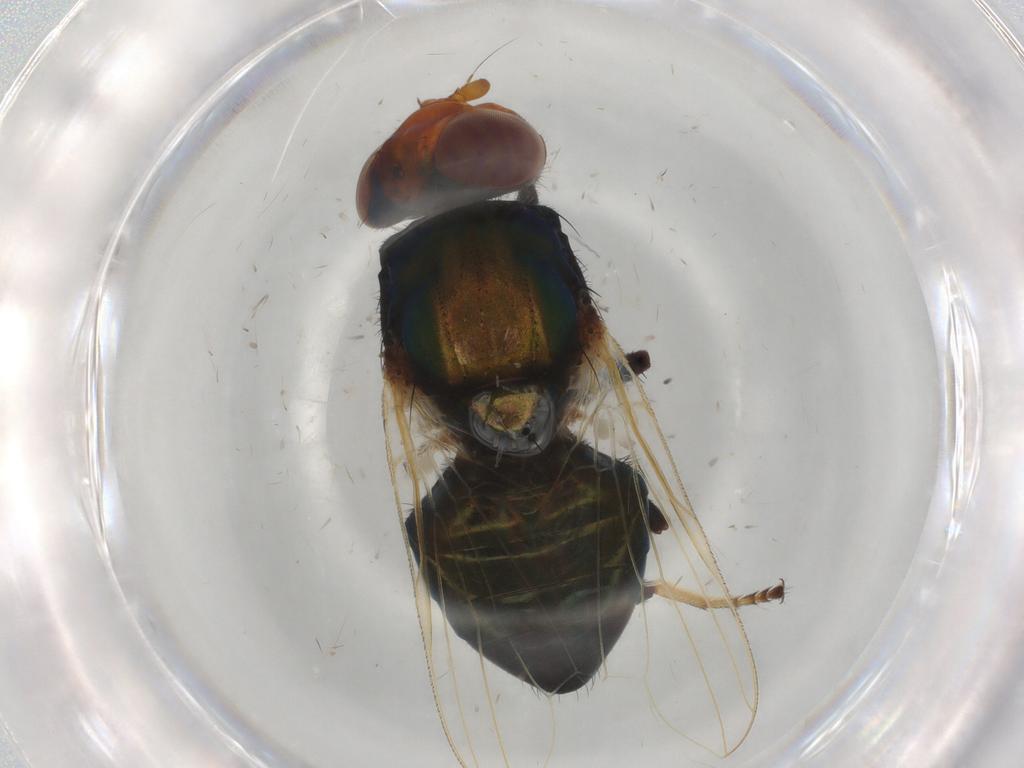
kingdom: Animalia
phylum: Arthropoda
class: Insecta
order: Diptera
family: Ulidiidae
